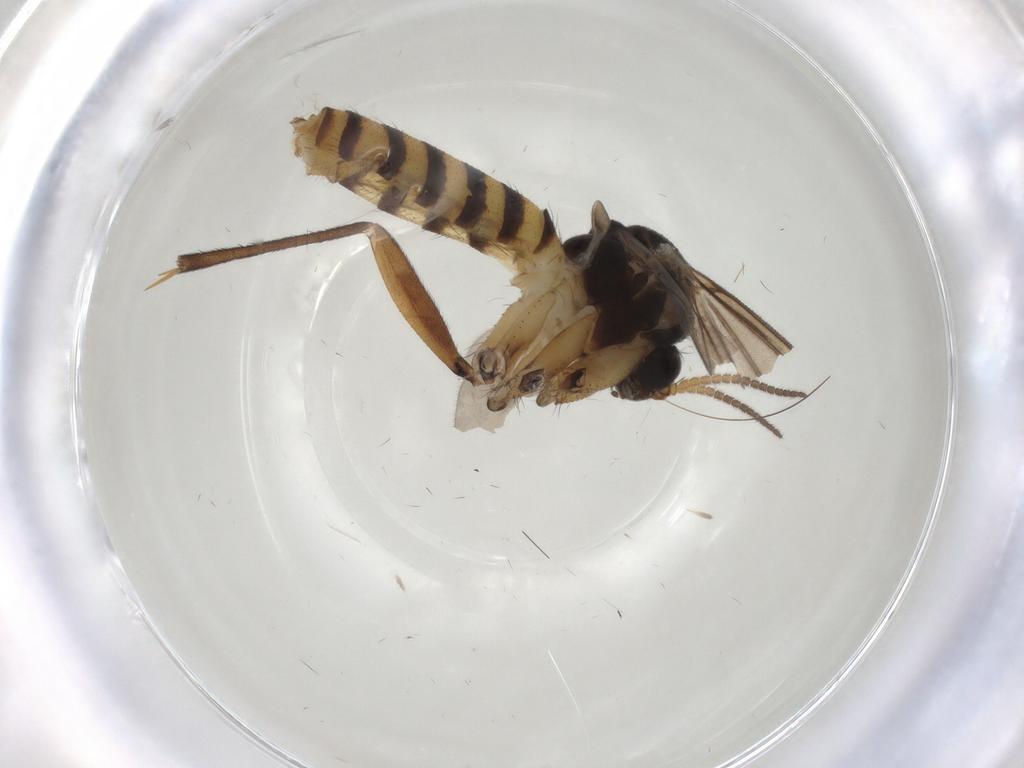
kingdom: Animalia
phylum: Arthropoda
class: Insecta
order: Diptera
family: Mycetophilidae
